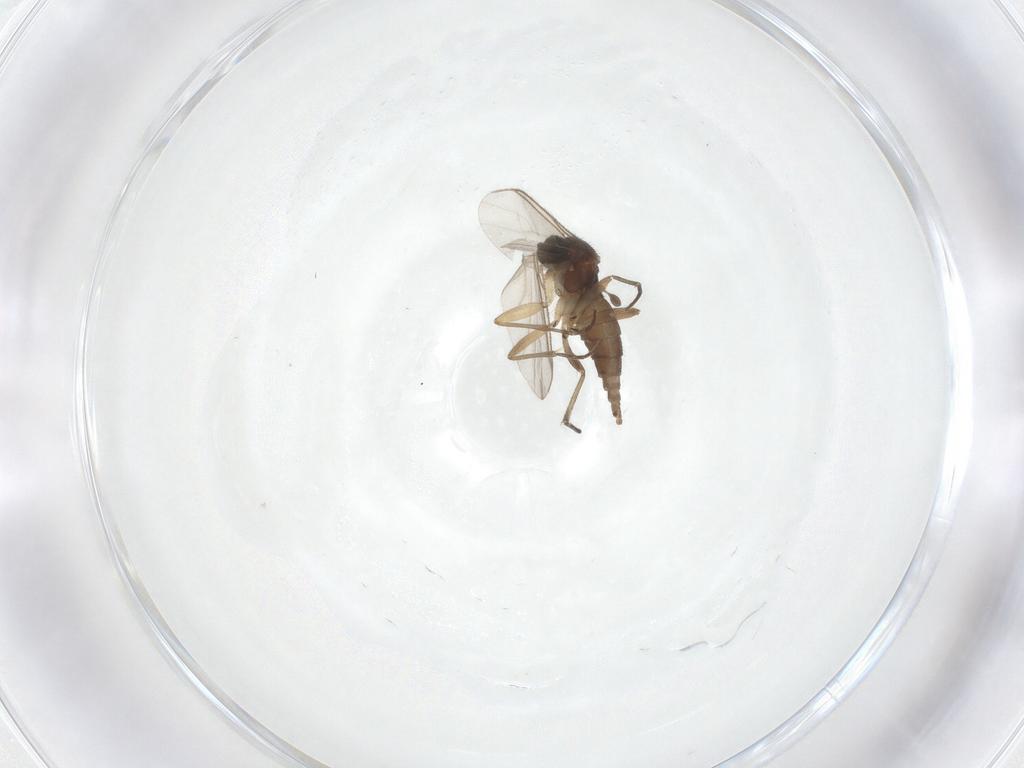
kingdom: Animalia
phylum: Arthropoda
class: Insecta
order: Diptera
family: Sciaridae
